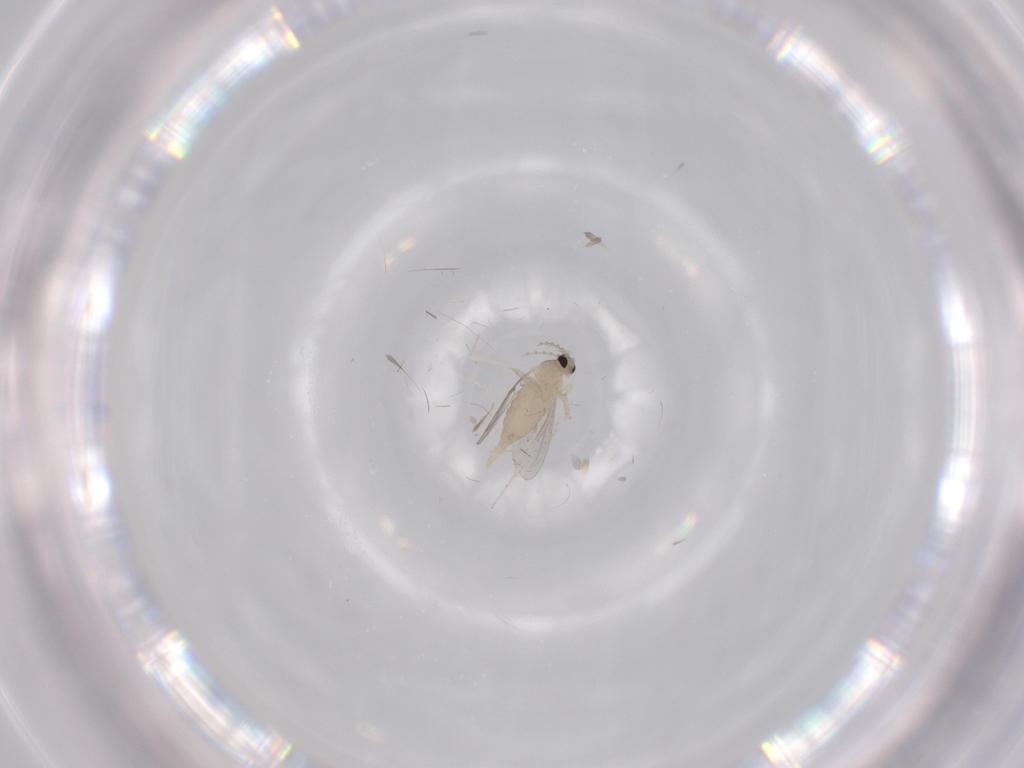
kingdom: Animalia
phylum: Arthropoda
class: Insecta
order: Diptera
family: Cecidomyiidae
